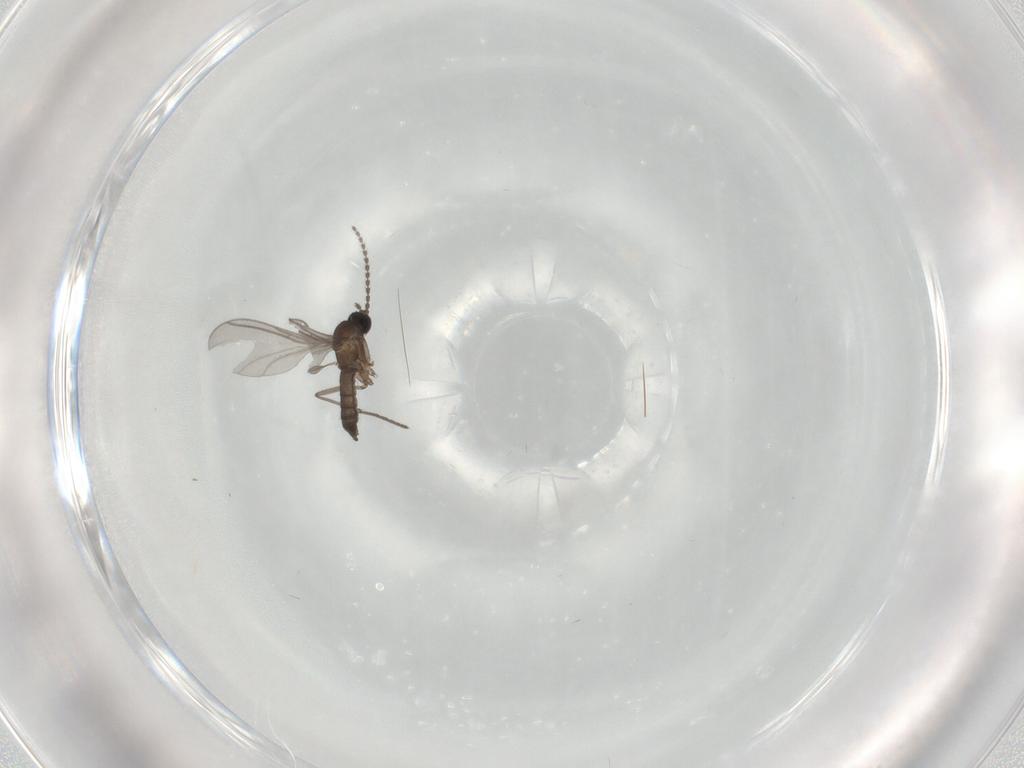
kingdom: Animalia
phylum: Arthropoda
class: Insecta
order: Diptera
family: Sciaridae
